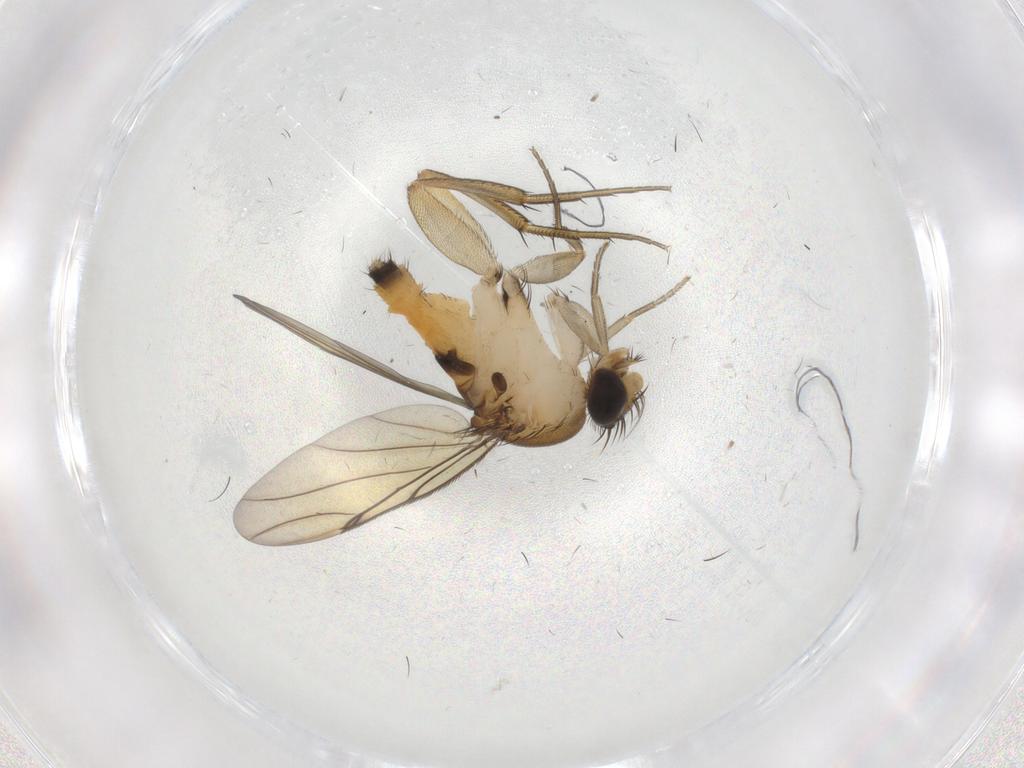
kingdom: Animalia
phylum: Arthropoda
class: Insecta
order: Diptera
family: Phoridae
